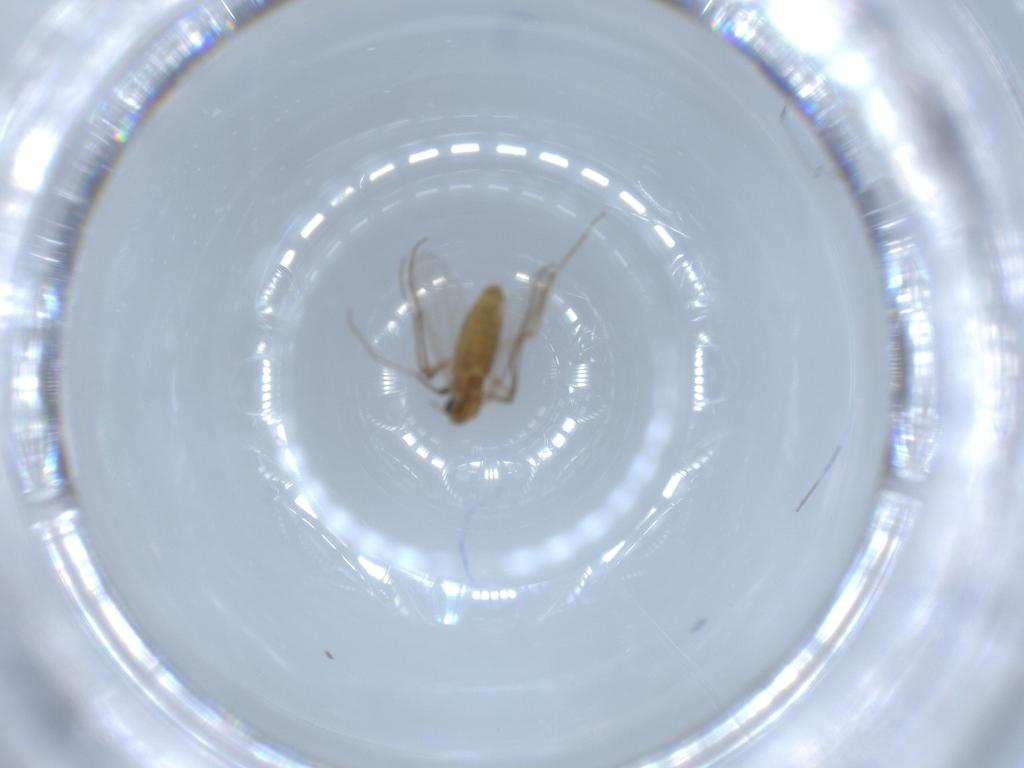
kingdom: Animalia
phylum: Arthropoda
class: Insecta
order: Diptera
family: Chironomidae
